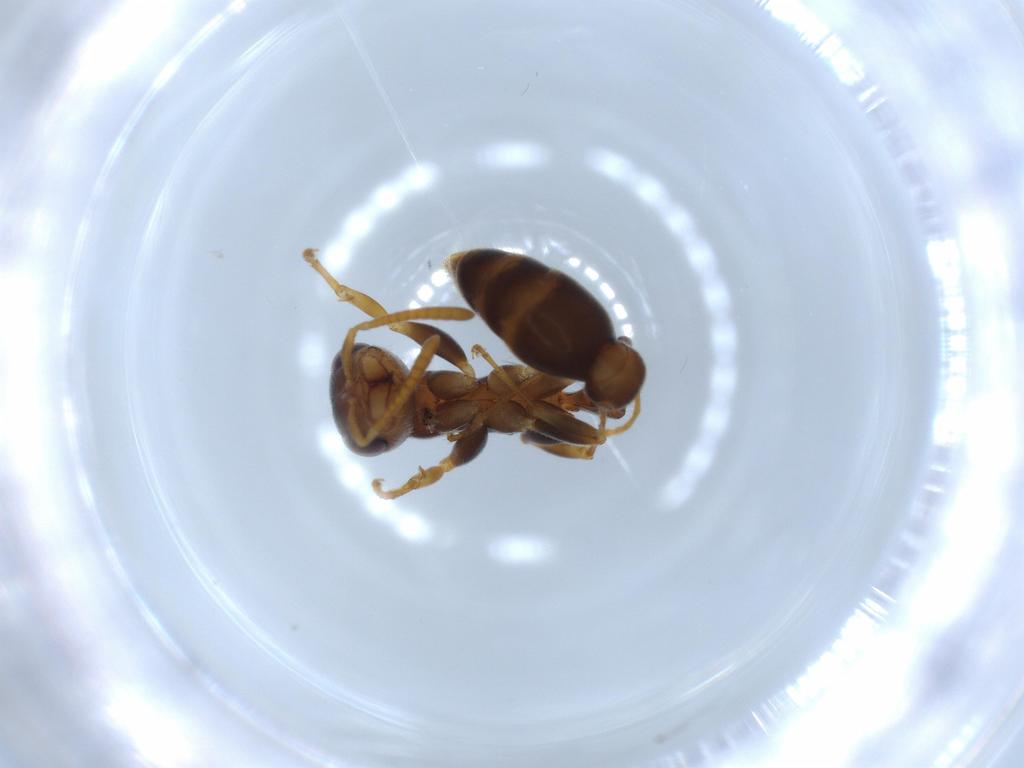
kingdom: Animalia
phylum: Arthropoda
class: Insecta
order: Hymenoptera
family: Formicidae
